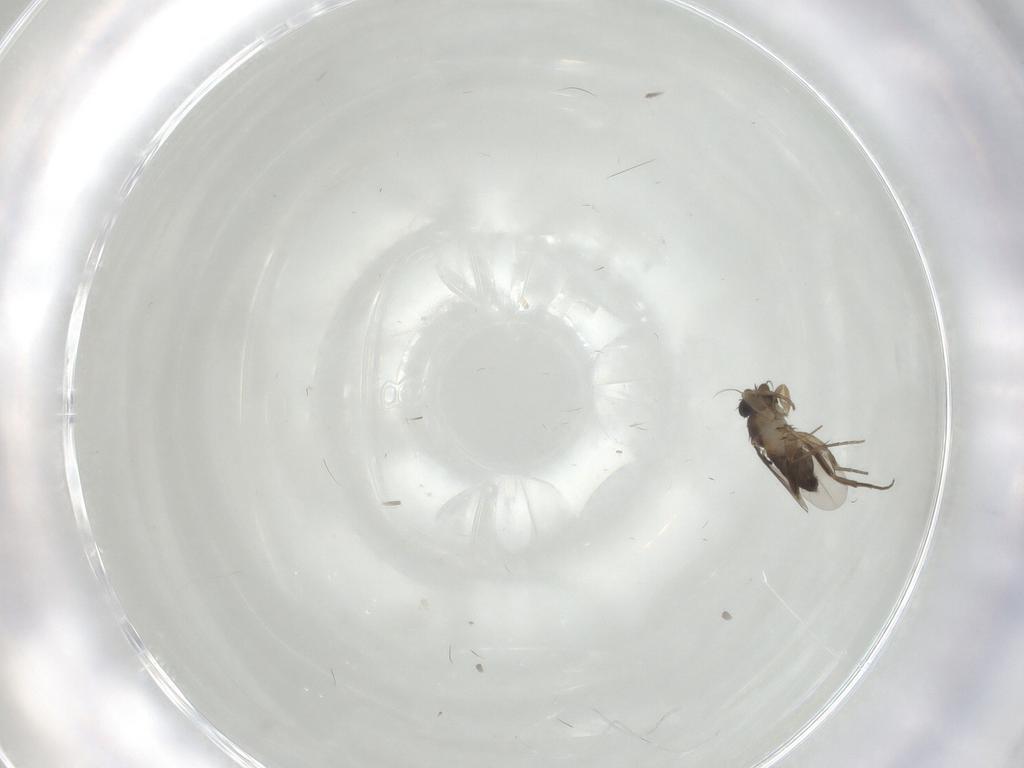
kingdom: Animalia
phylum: Arthropoda
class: Insecta
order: Diptera
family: Phoridae
